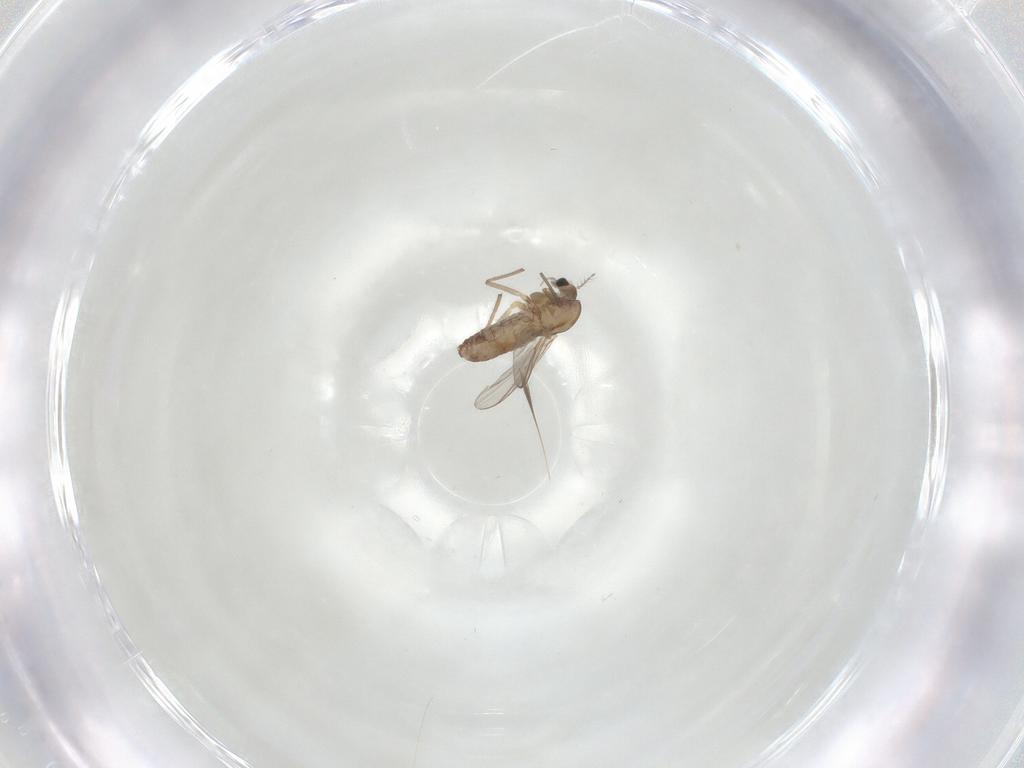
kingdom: Animalia
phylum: Arthropoda
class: Insecta
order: Diptera
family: Chironomidae
